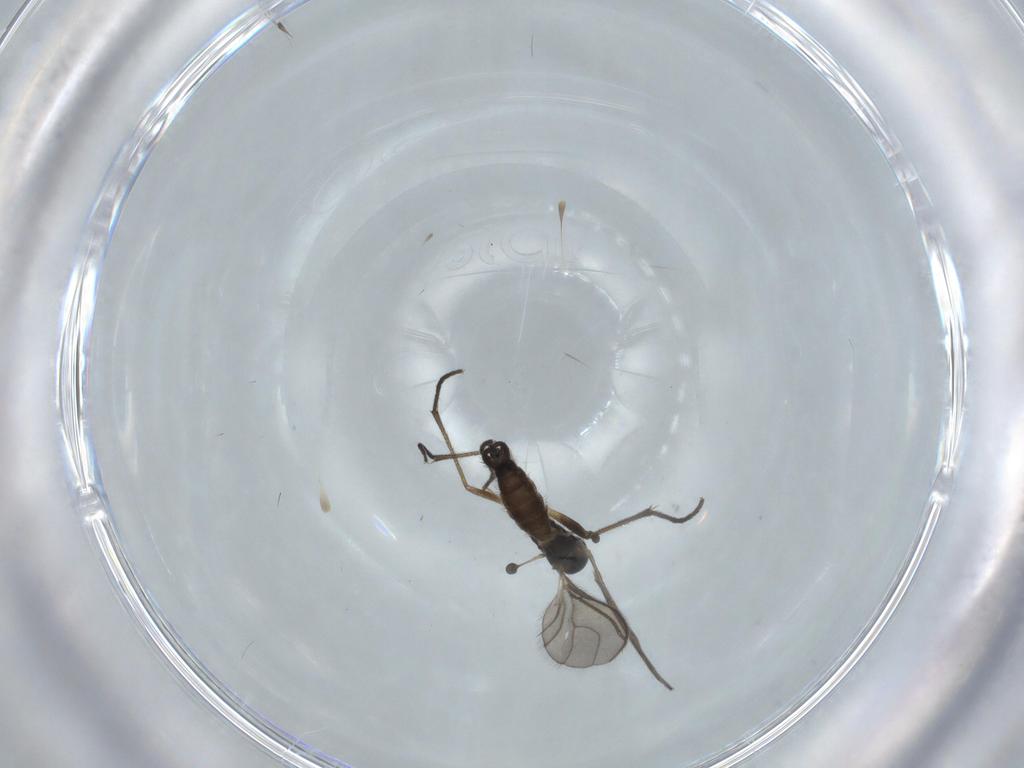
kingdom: Animalia
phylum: Arthropoda
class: Insecta
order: Diptera
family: Sciaridae
